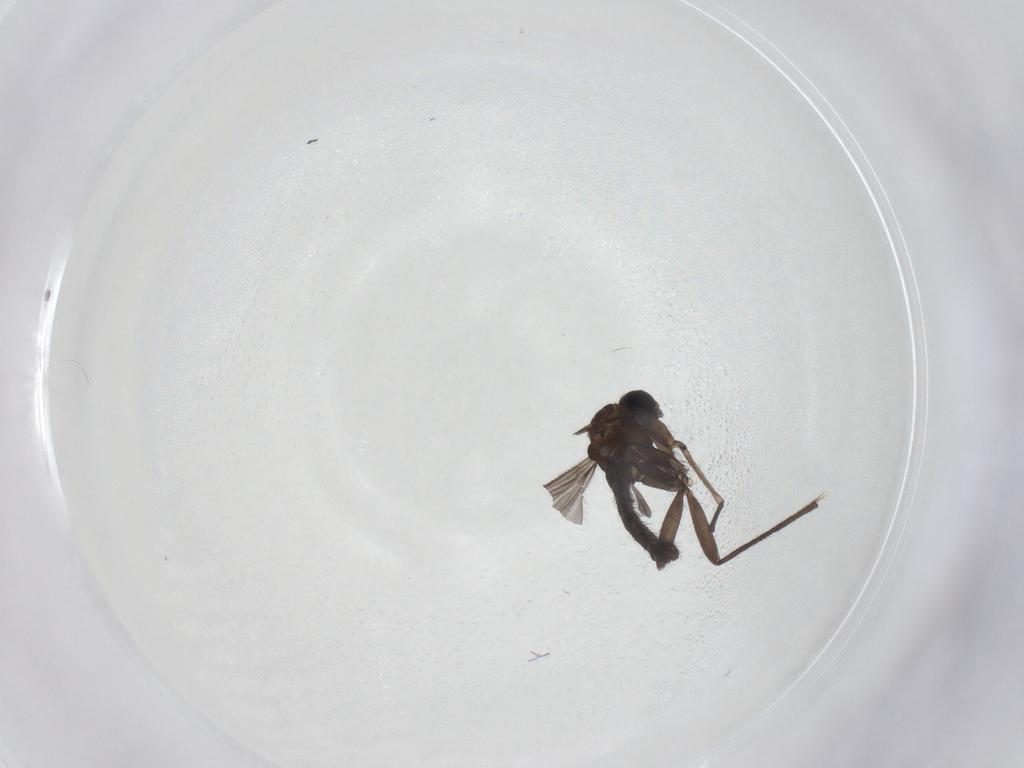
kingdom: Animalia
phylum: Arthropoda
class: Insecta
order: Diptera
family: Sciaridae
